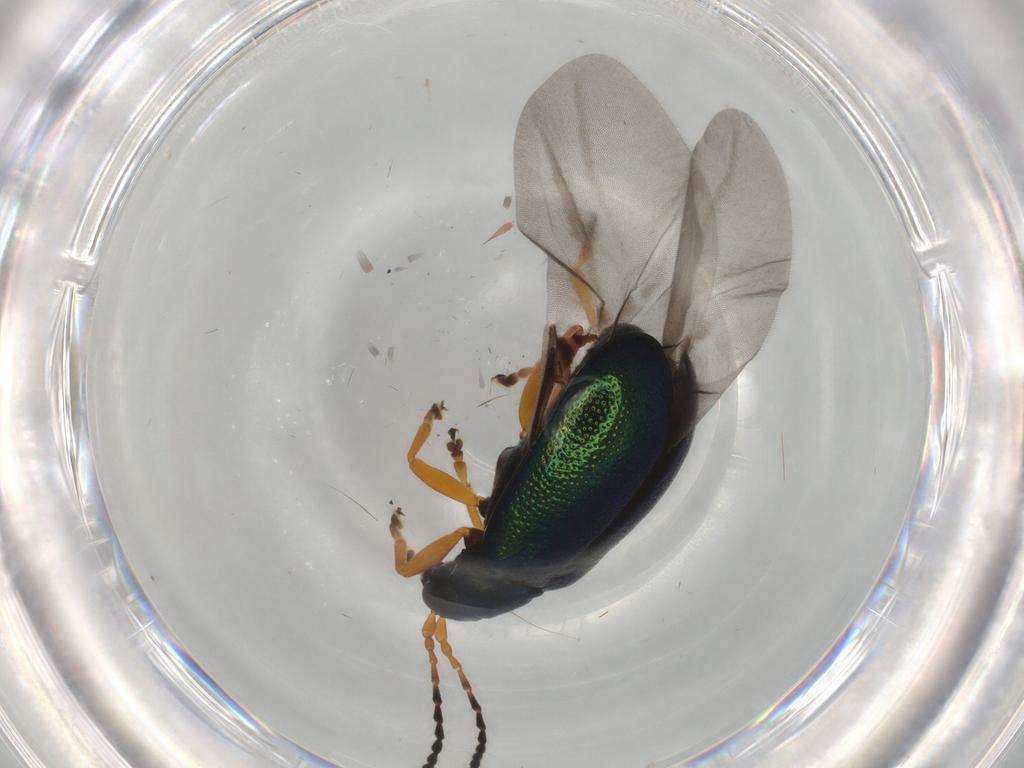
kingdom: Animalia
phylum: Arthropoda
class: Insecta
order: Coleoptera
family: Chrysomelidae
